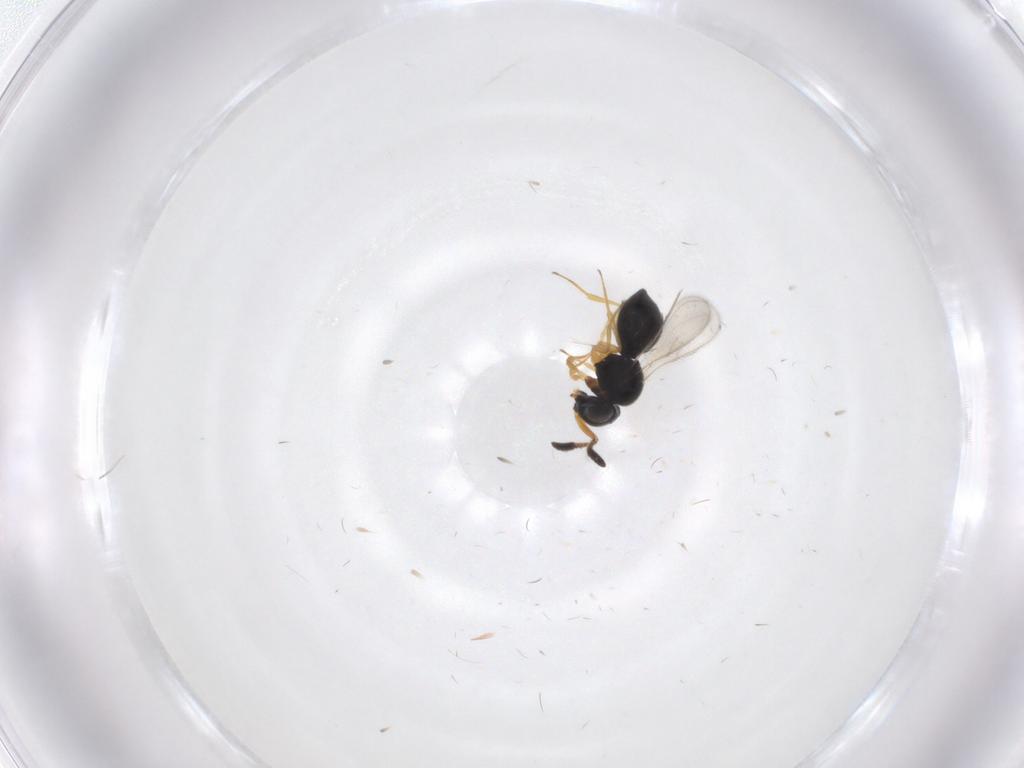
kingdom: Animalia
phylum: Arthropoda
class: Insecta
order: Hymenoptera
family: Scelionidae
